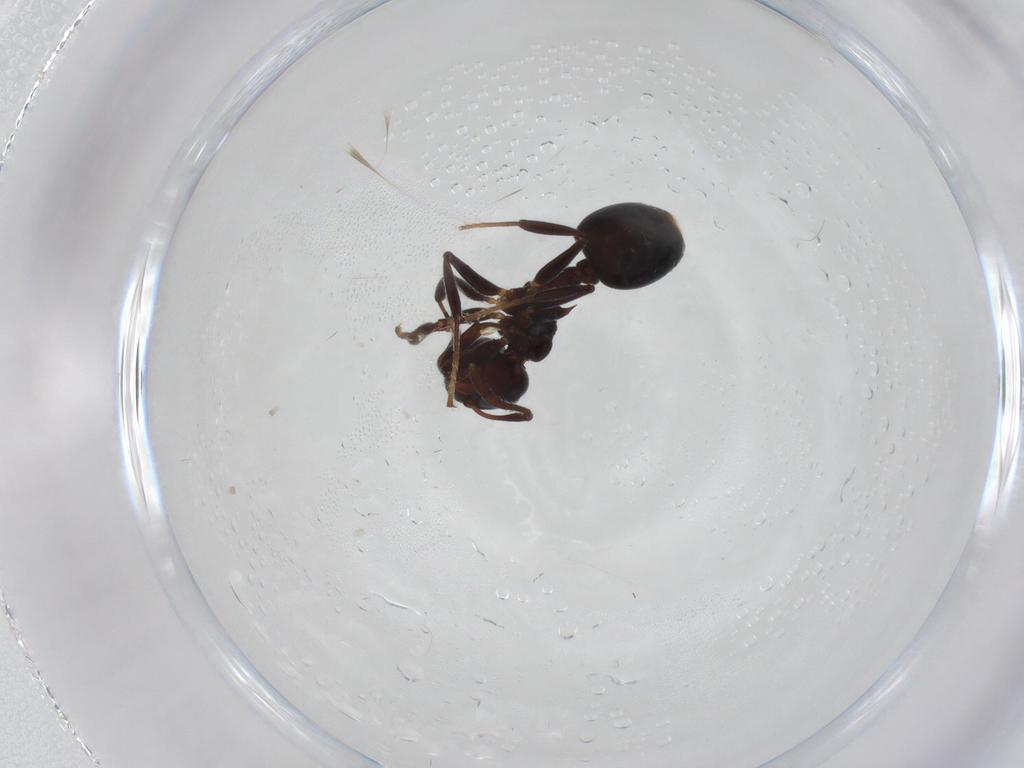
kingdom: Animalia
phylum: Arthropoda
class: Insecta
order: Hymenoptera
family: Formicidae
